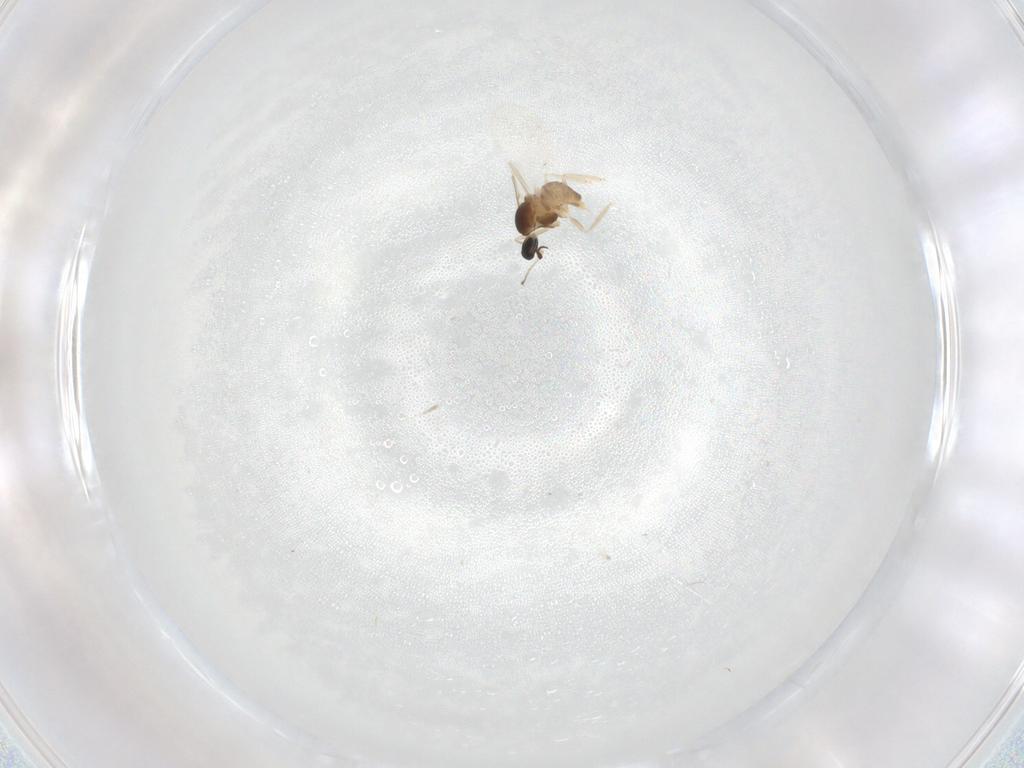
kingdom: Animalia
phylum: Arthropoda
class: Insecta
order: Diptera
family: Cecidomyiidae
